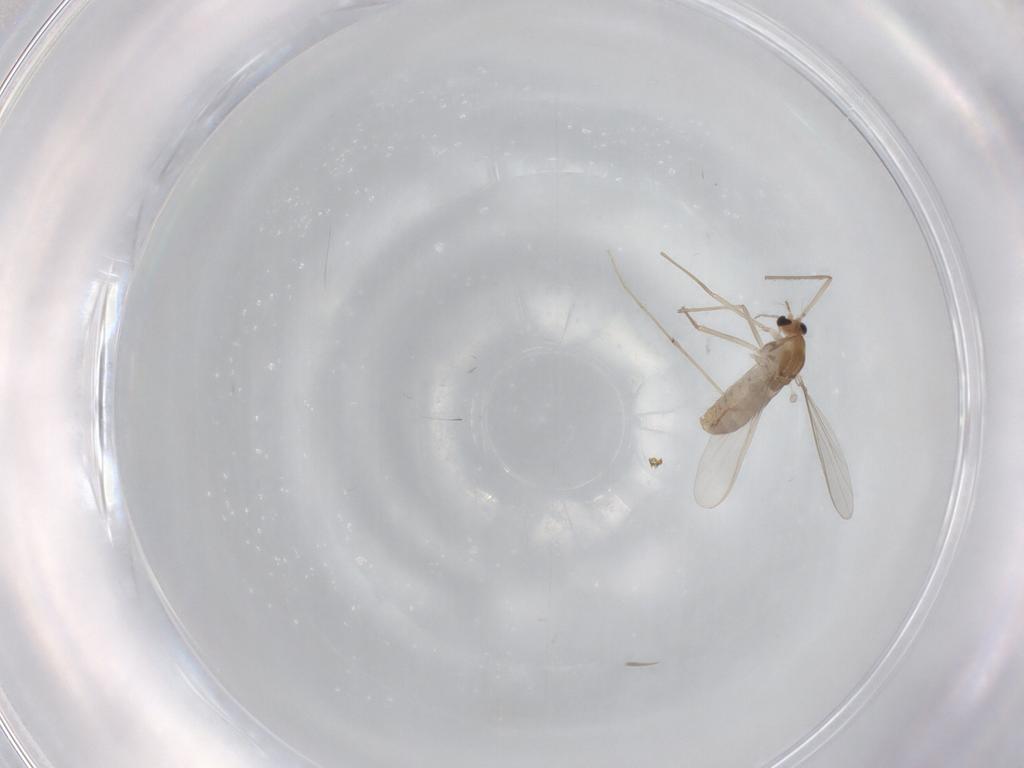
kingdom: Animalia
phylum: Arthropoda
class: Insecta
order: Diptera
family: Chironomidae
